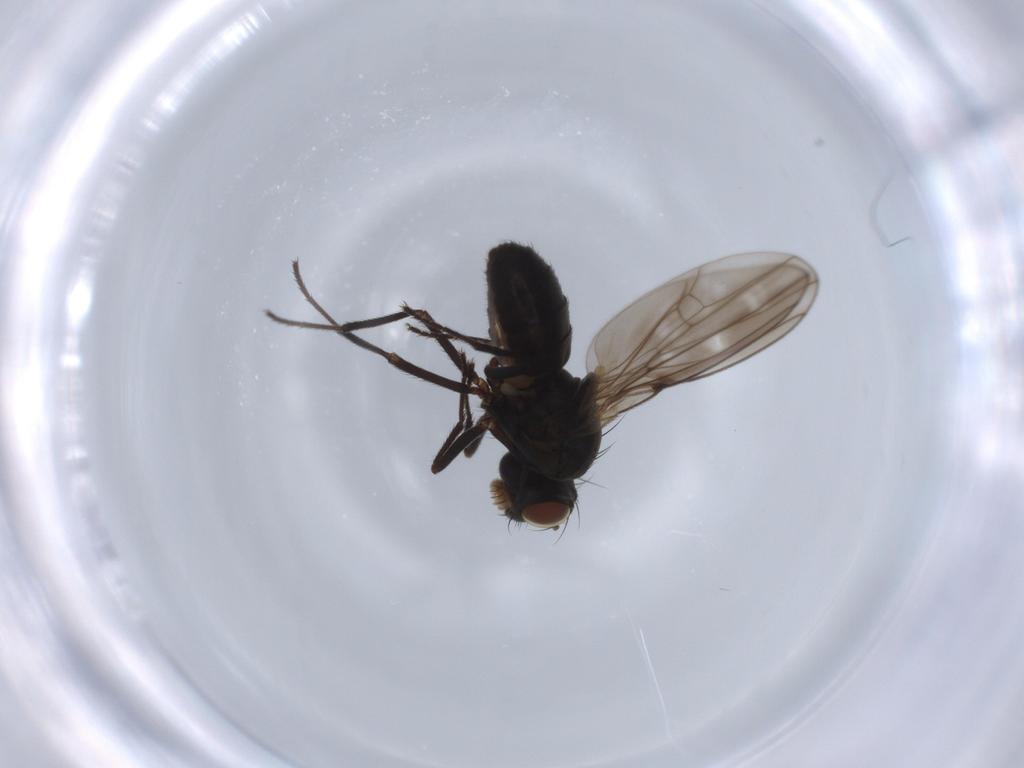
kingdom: Animalia
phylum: Arthropoda
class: Insecta
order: Diptera
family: Ephydridae
